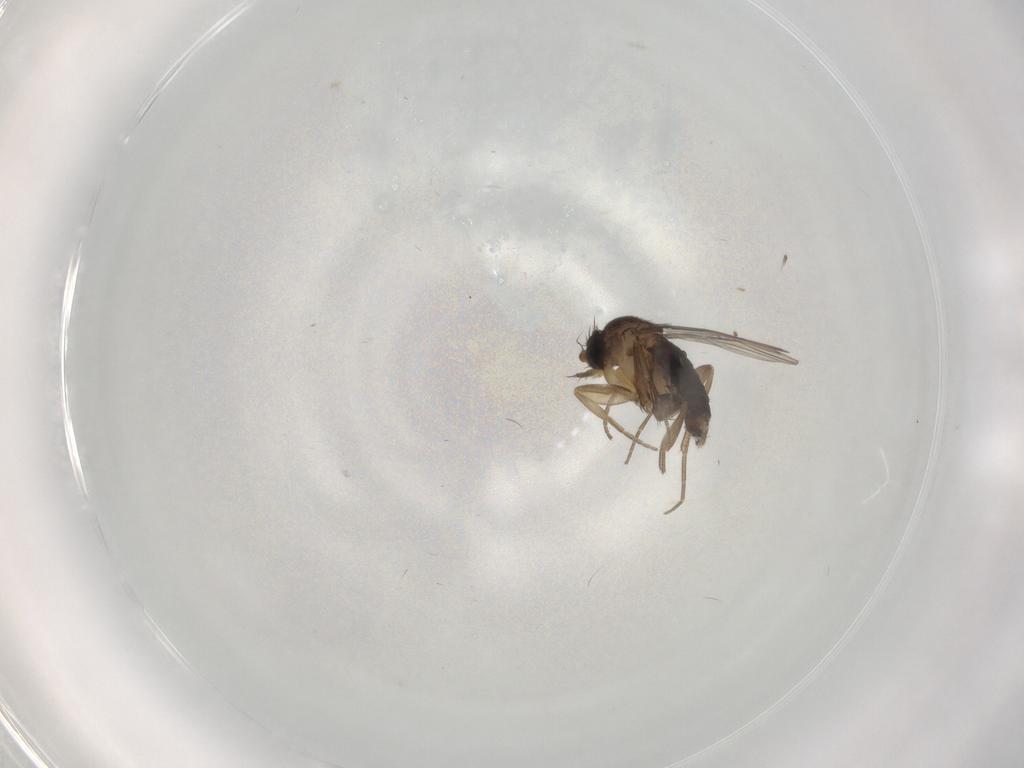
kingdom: Animalia
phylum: Arthropoda
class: Insecta
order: Diptera
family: Phoridae
